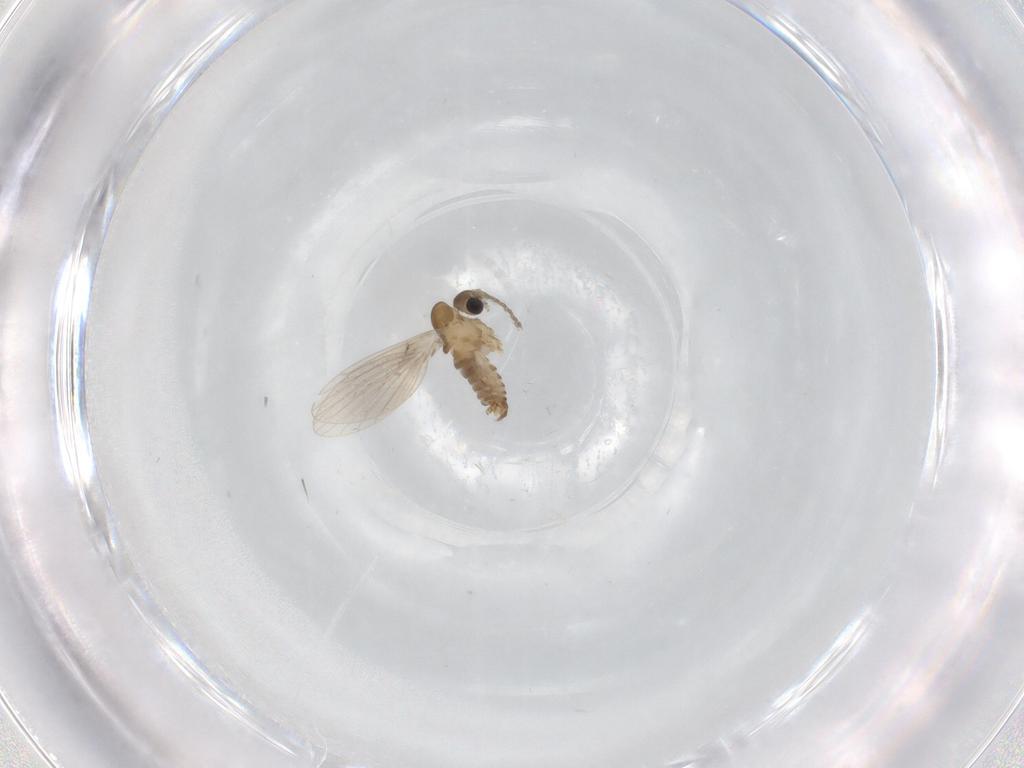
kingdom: Animalia
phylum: Arthropoda
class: Insecta
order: Diptera
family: Psychodidae
